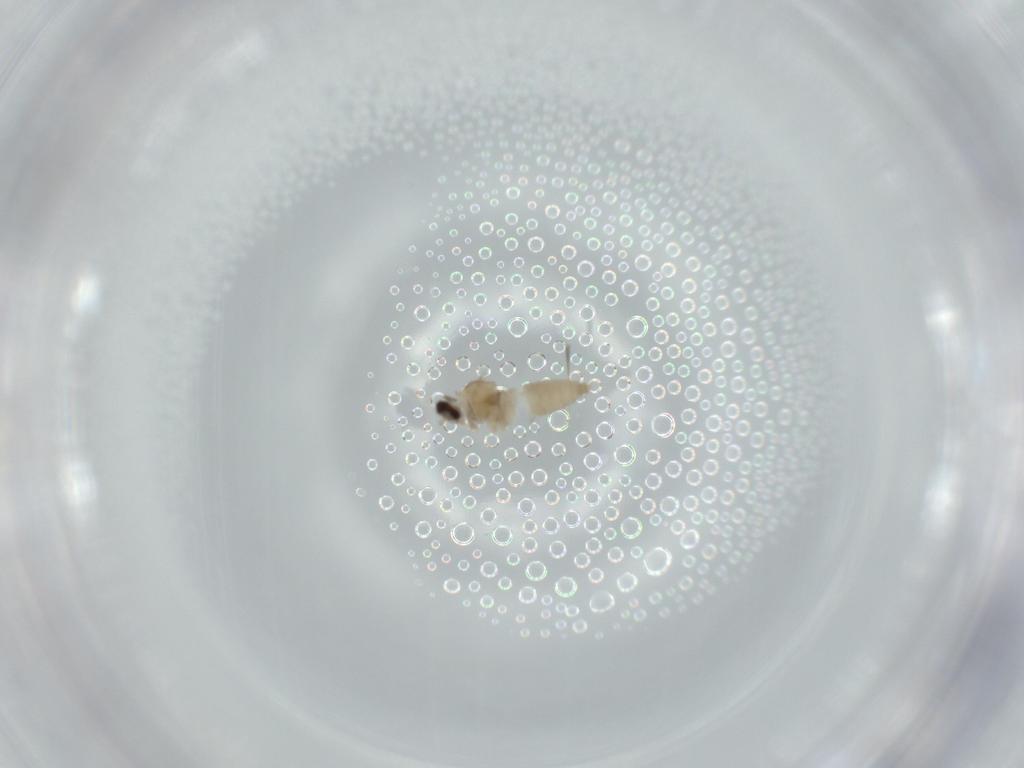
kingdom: Animalia
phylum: Arthropoda
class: Insecta
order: Diptera
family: Cecidomyiidae
